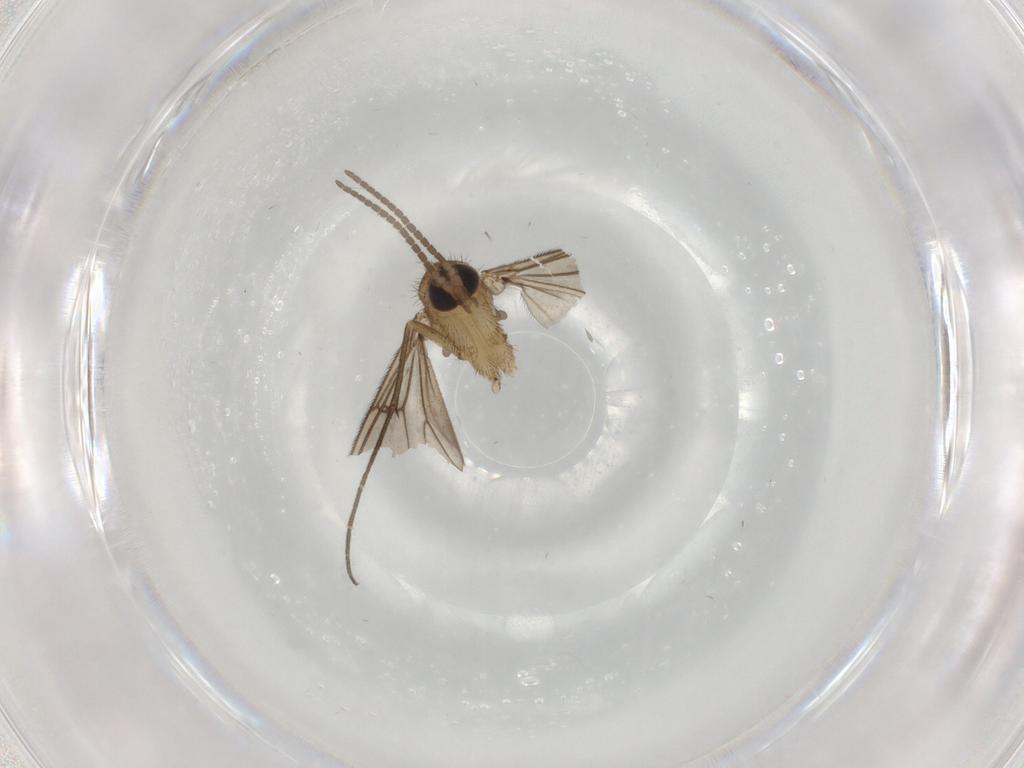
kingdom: Animalia
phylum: Arthropoda
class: Insecta
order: Diptera
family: Mycetophilidae
